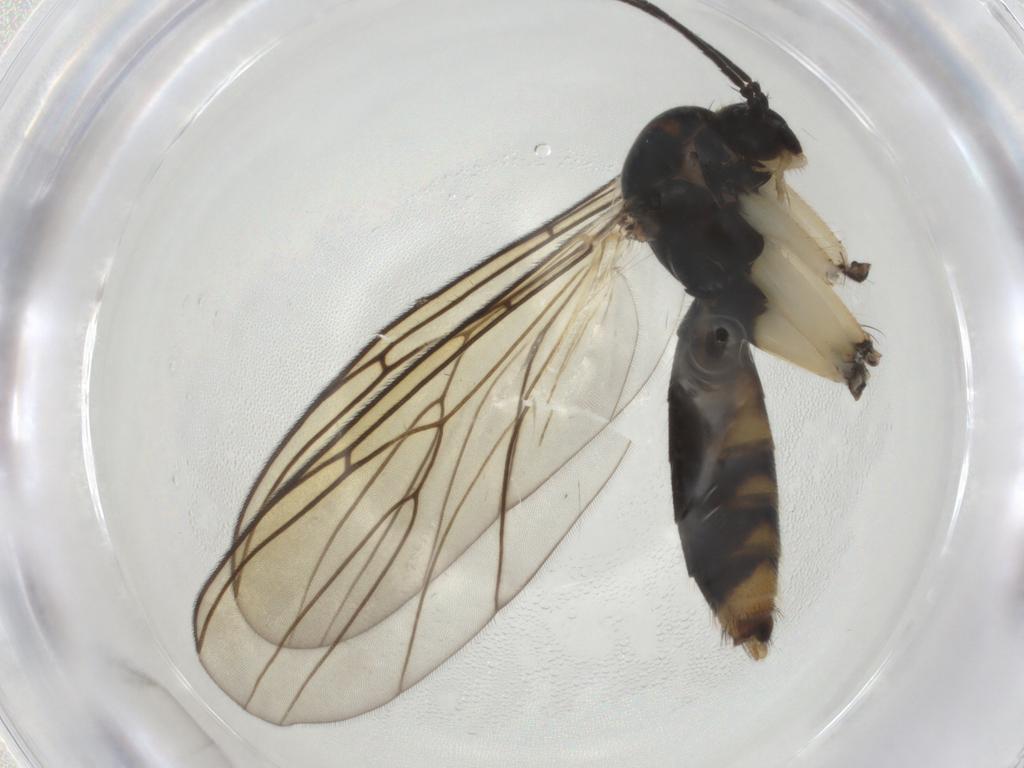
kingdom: Animalia
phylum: Arthropoda
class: Insecta
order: Diptera
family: Mycetophilidae
